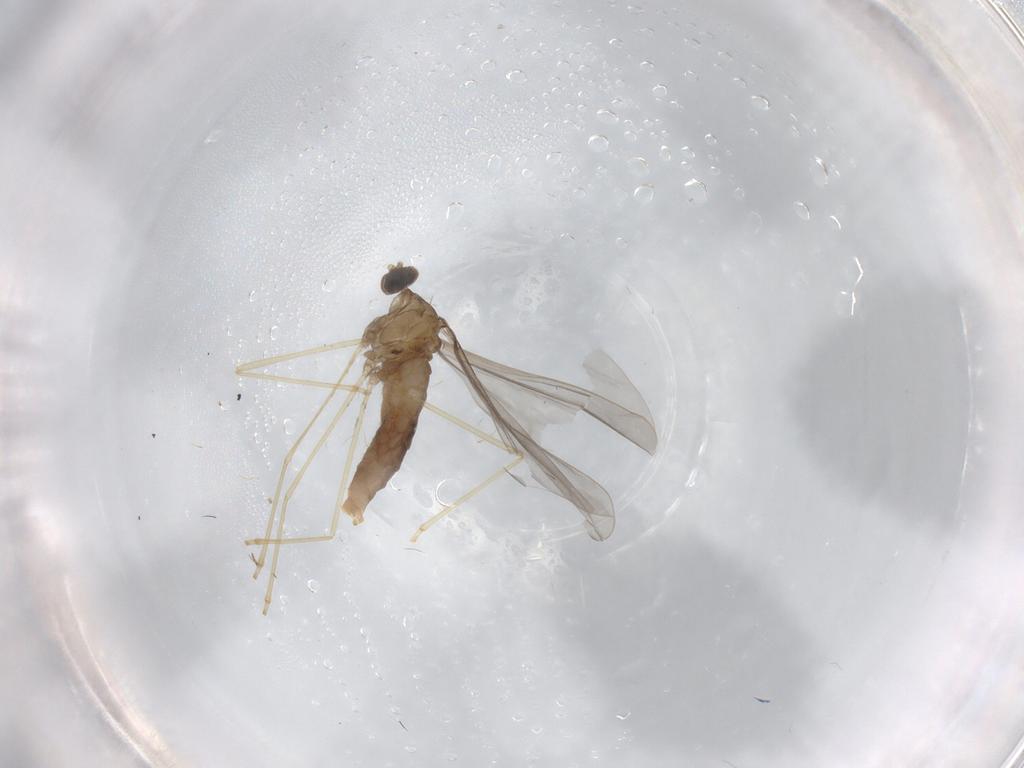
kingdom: Animalia
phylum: Arthropoda
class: Insecta
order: Diptera
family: Cecidomyiidae
